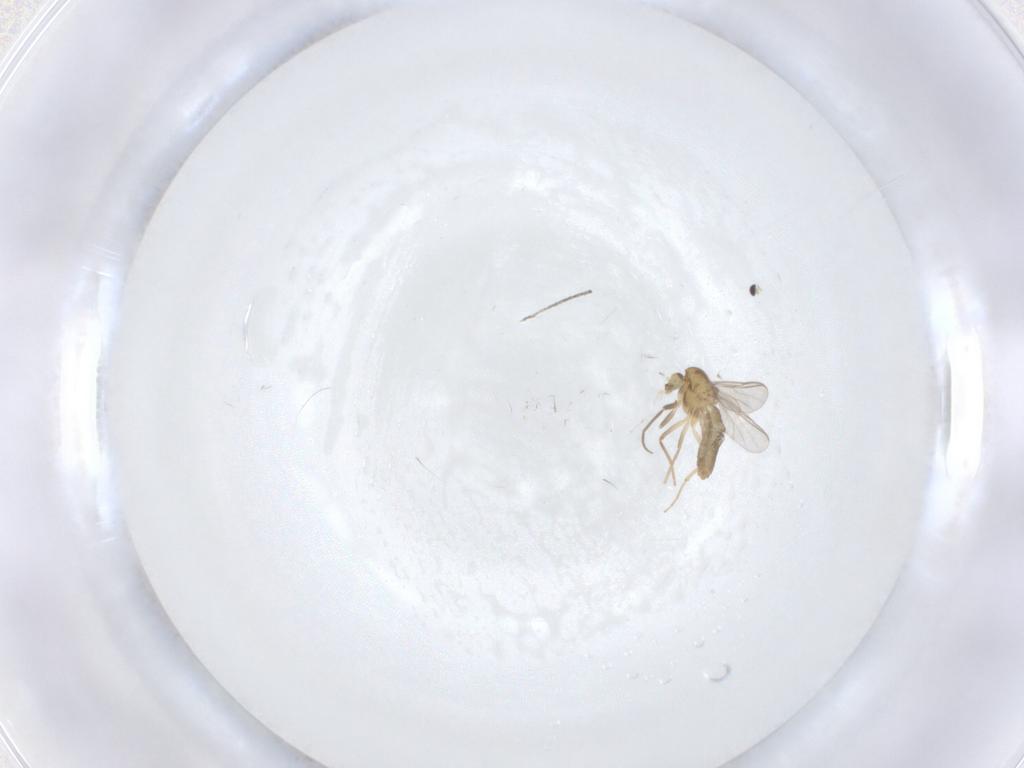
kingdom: Animalia
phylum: Arthropoda
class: Insecta
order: Diptera
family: Chironomidae
